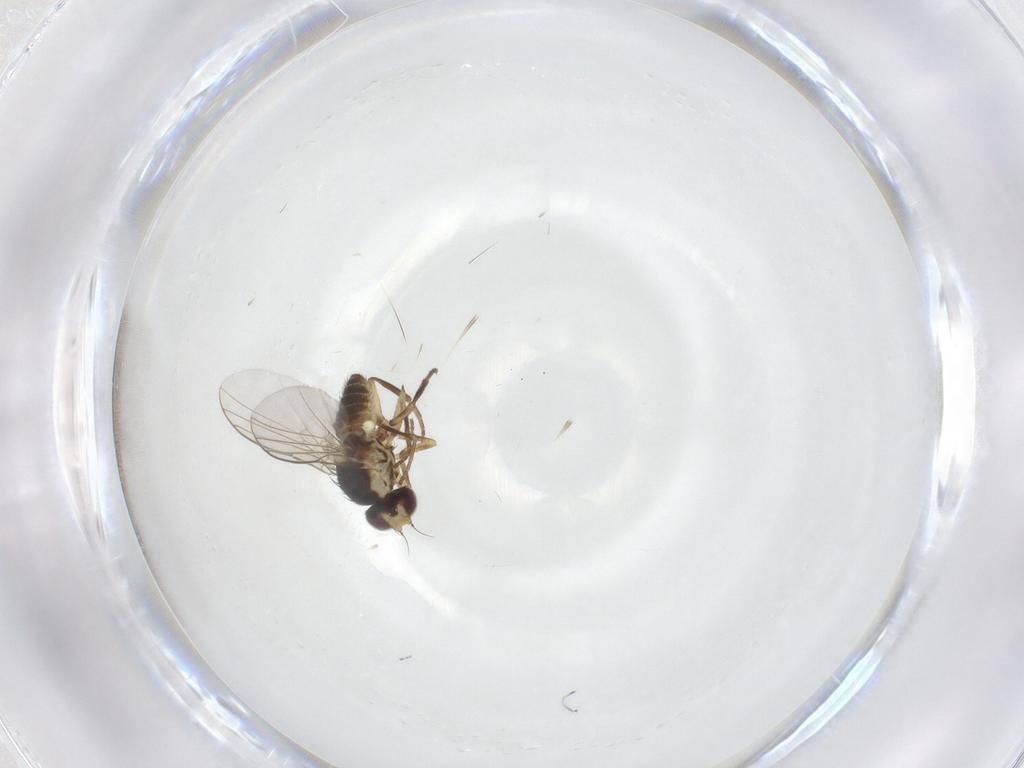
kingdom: Animalia
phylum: Arthropoda
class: Insecta
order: Diptera
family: Agromyzidae
